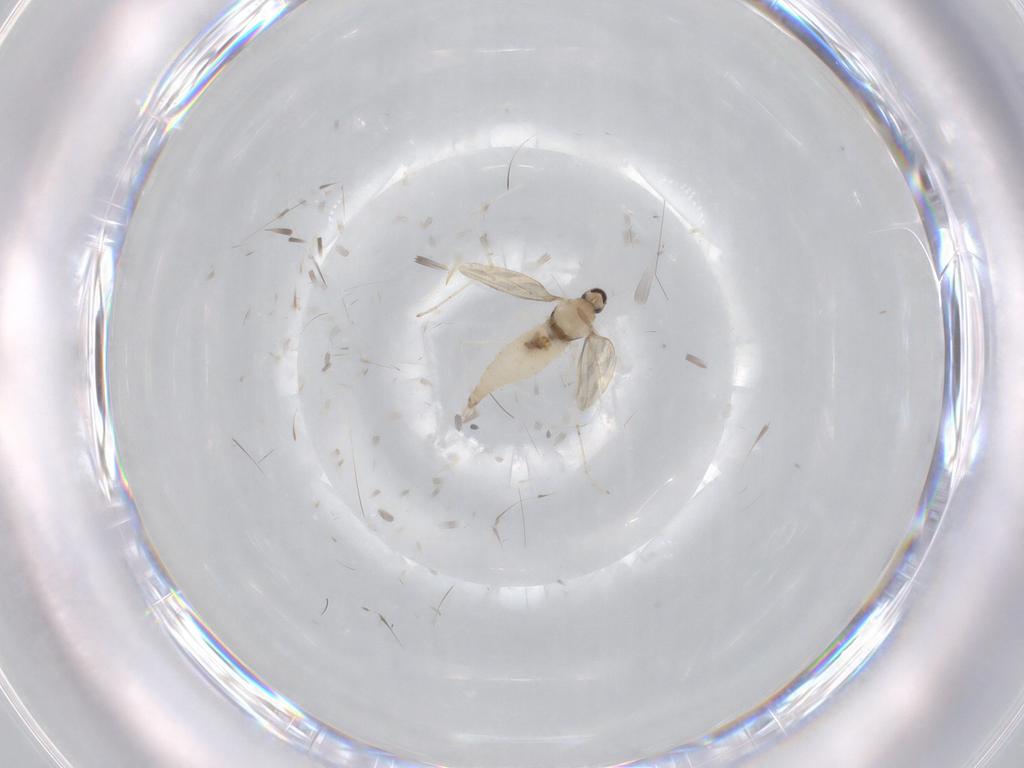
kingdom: Animalia
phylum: Arthropoda
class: Insecta
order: Diptera
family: Cecidomyiidae
